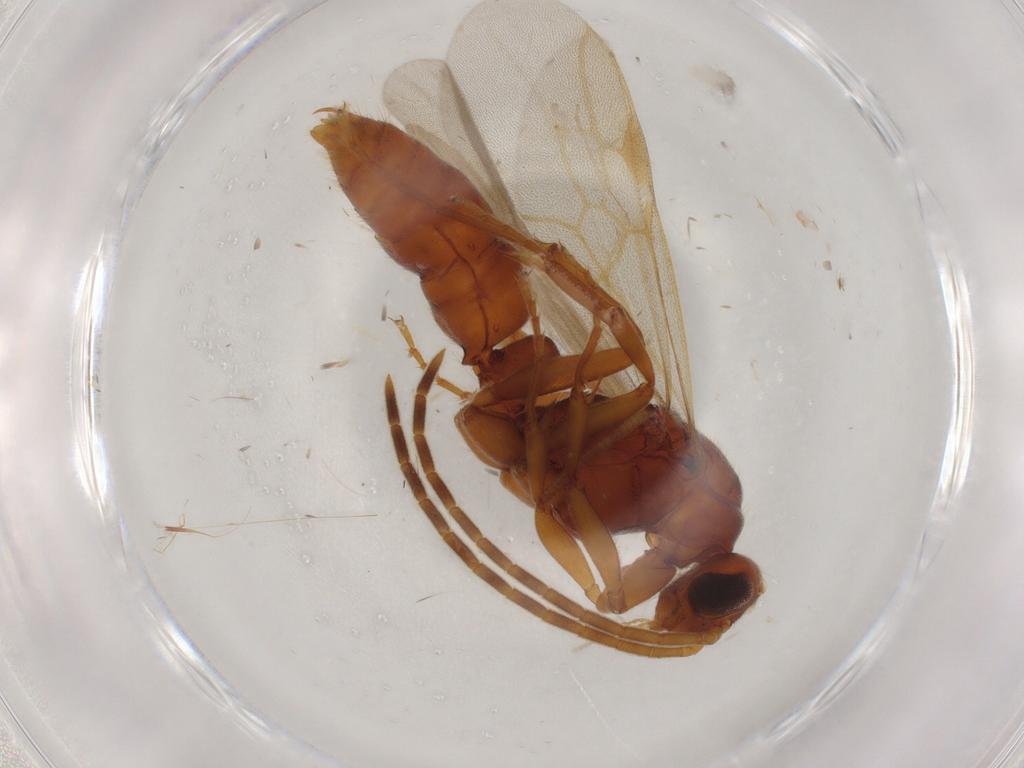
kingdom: Animalia
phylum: Arthropoda
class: Insecta
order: Hymenoptera
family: Formicidae
